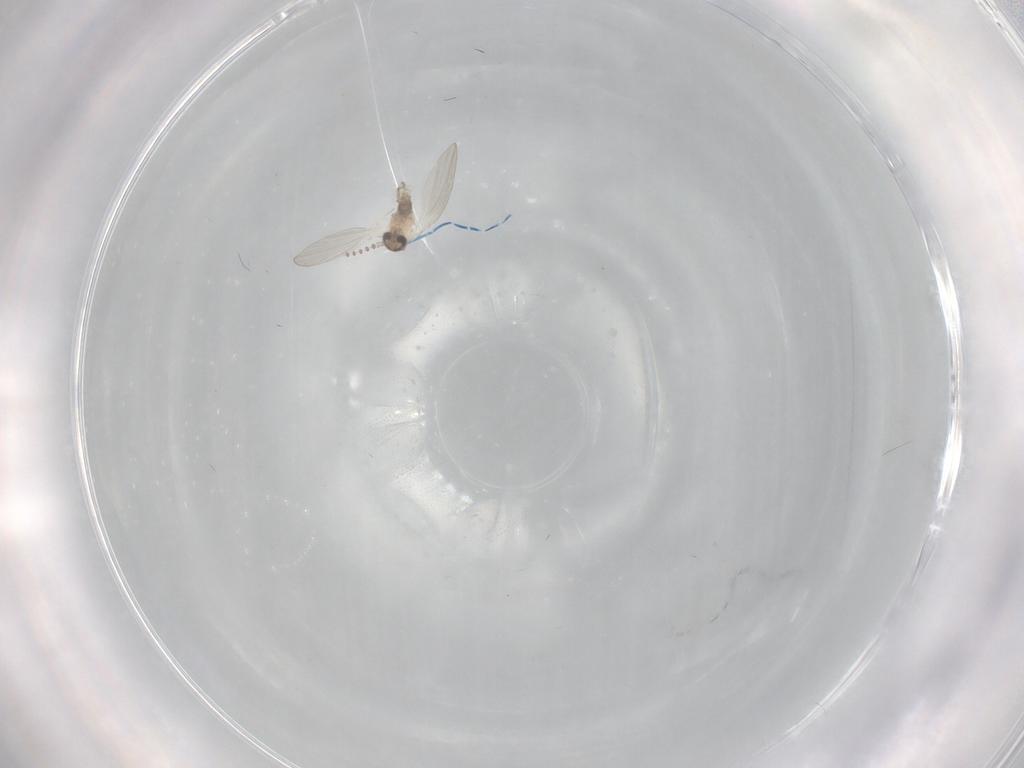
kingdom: Animalia
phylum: Arthropoda
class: Insecta
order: Diptera
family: Psychodidae
